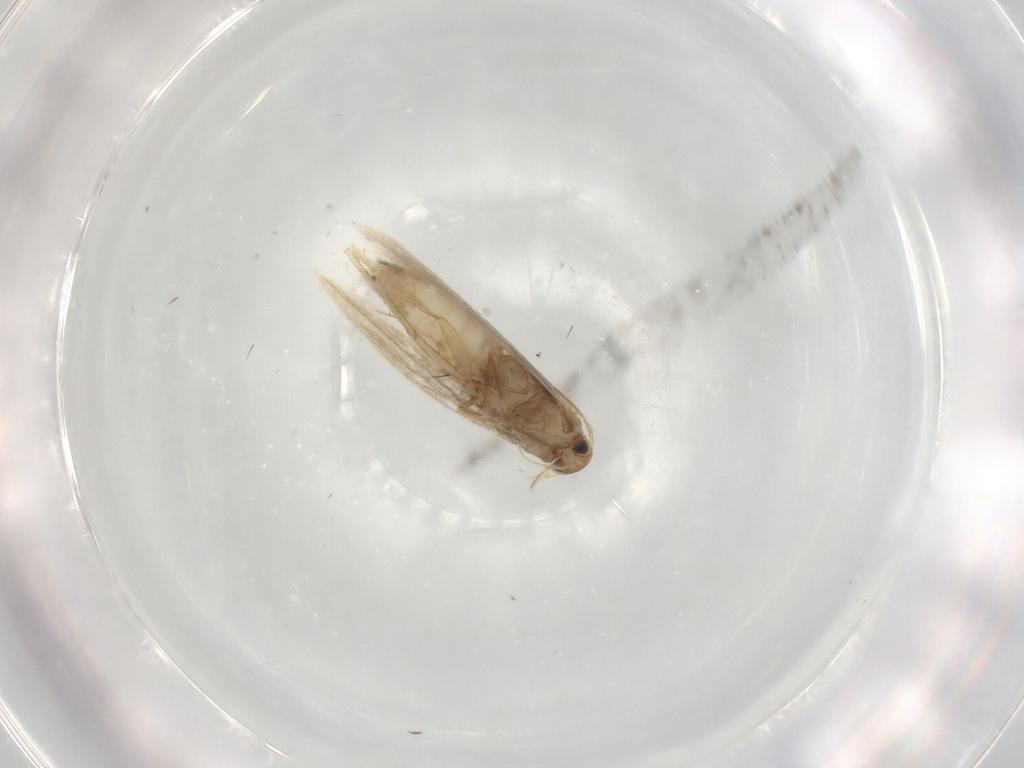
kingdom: Animalia
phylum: Arthropoda
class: Insecta
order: Lepidoptera
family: Gracillariidae
